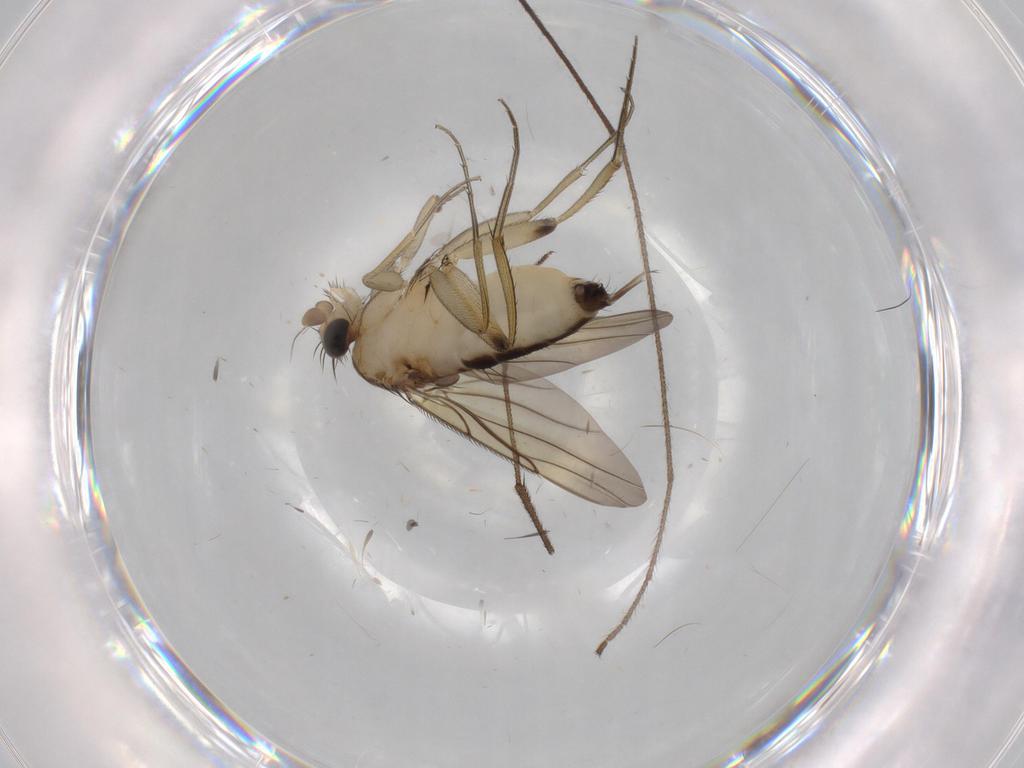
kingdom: Animalia
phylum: Arthropoda
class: Insecta
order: Diptera
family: Phoridae
